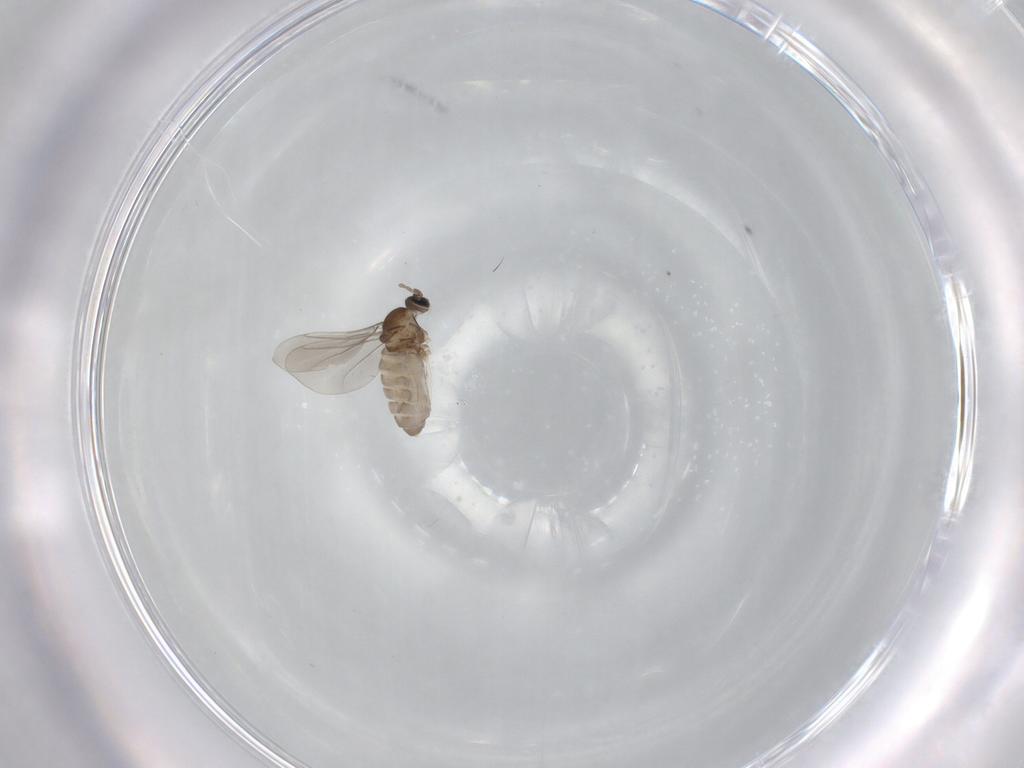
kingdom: Animalia
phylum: Arthropoda
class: Insecta
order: Diptera
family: Cecidomyiidae
